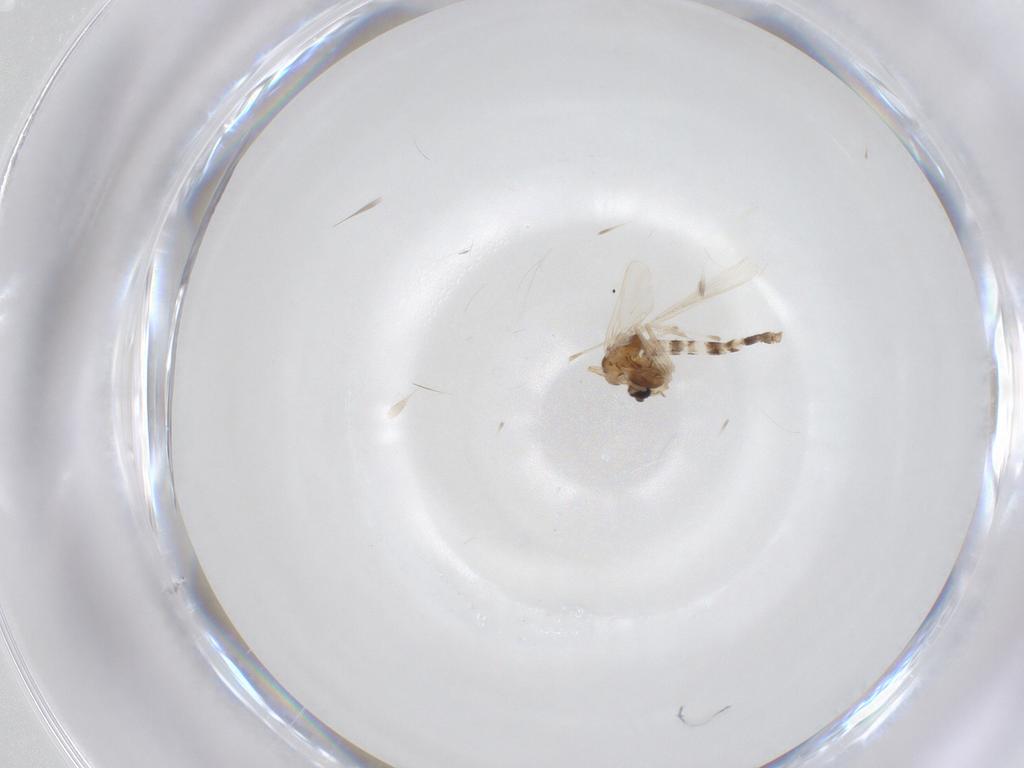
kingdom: Animalia
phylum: Arthropoda
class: Insecta
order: Diptera
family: Chironomidae
